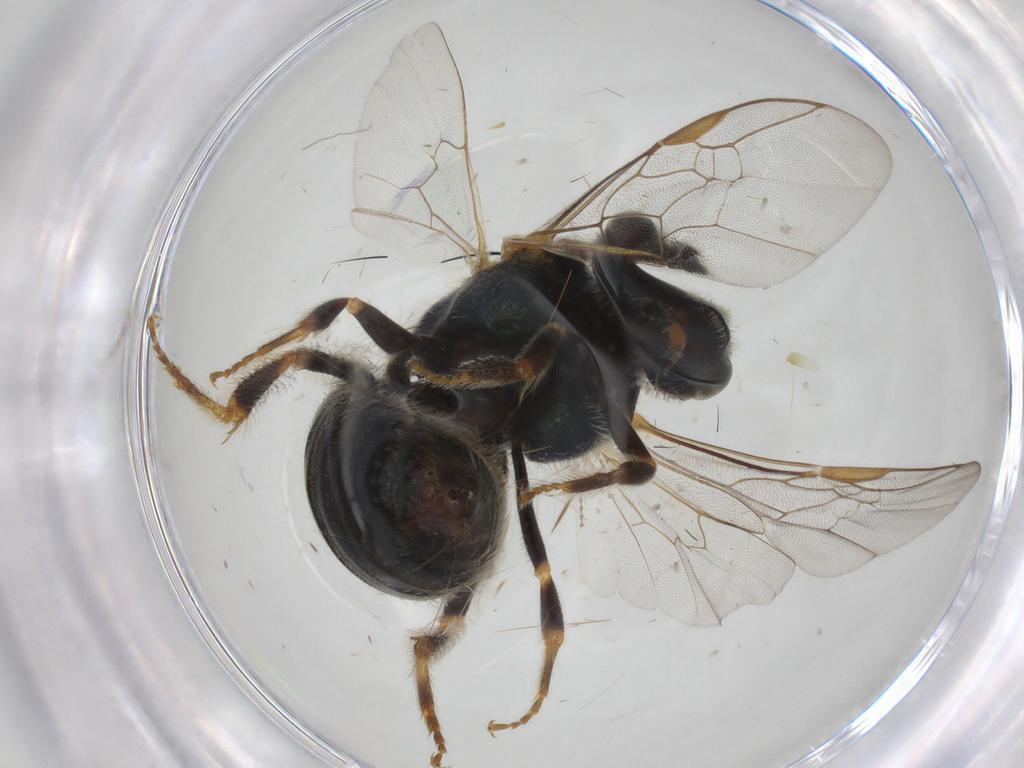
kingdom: Animalia
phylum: Arthropoda
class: Insecta
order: Hymenoptera
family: Halictidae
